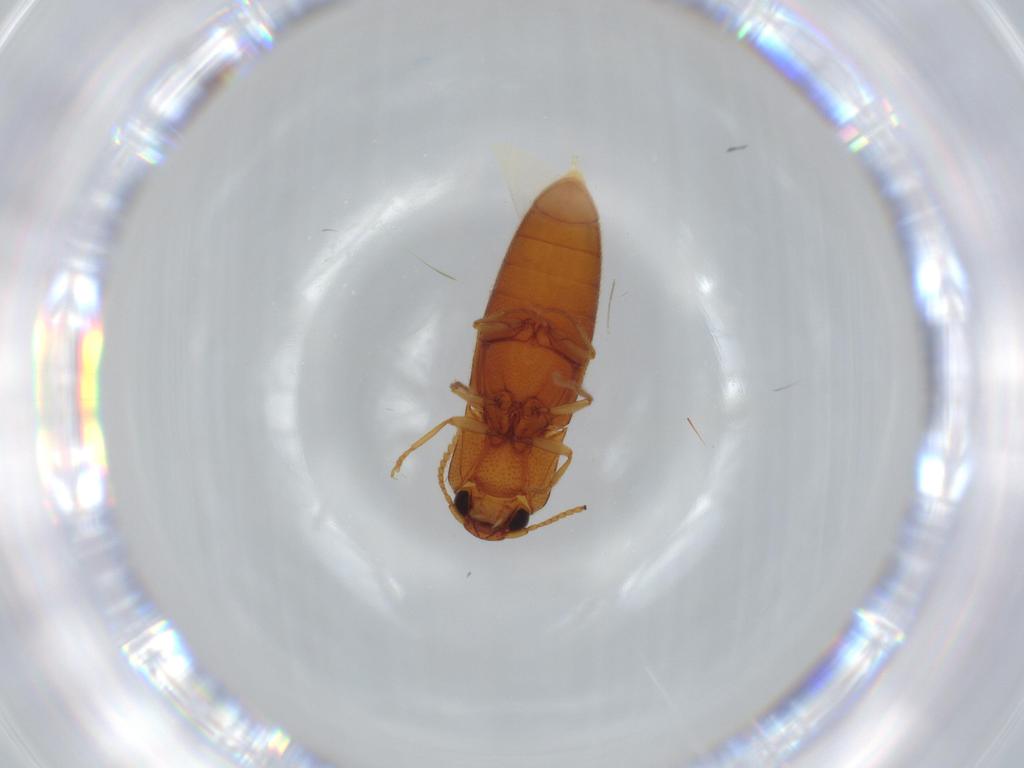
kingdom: Animalia
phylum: Arthropoda
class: Insecta
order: Coleoptera
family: Elateridae
